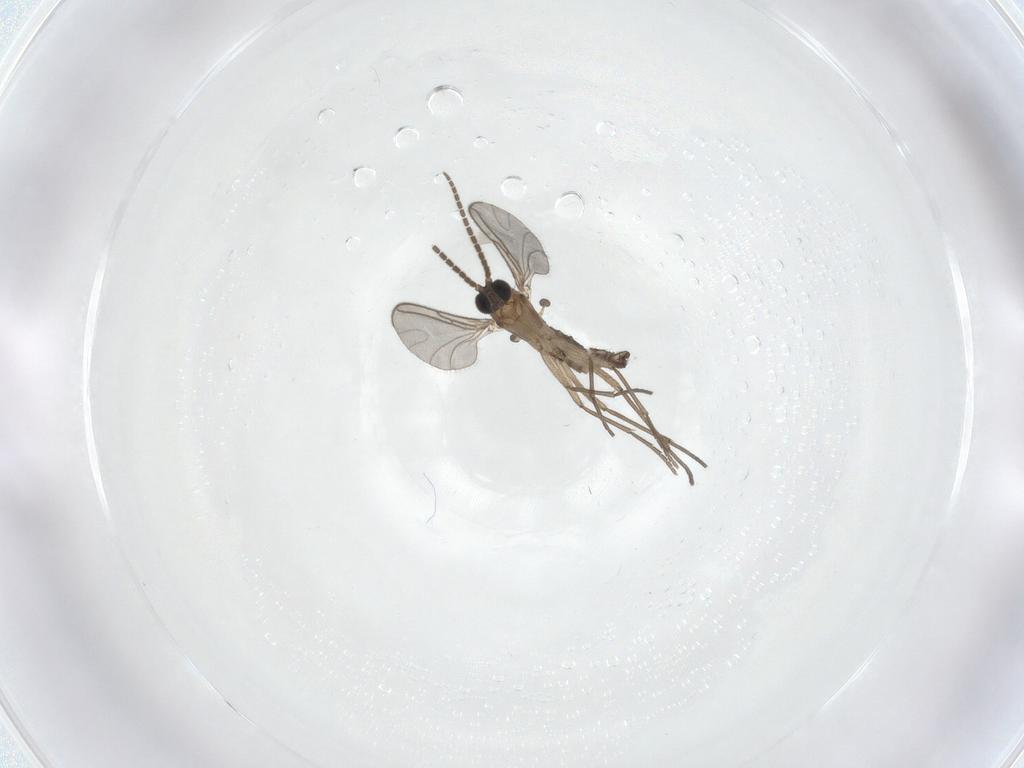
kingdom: Animalia
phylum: Arthropoda
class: Insecta
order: Diptera
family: Sciaridae
